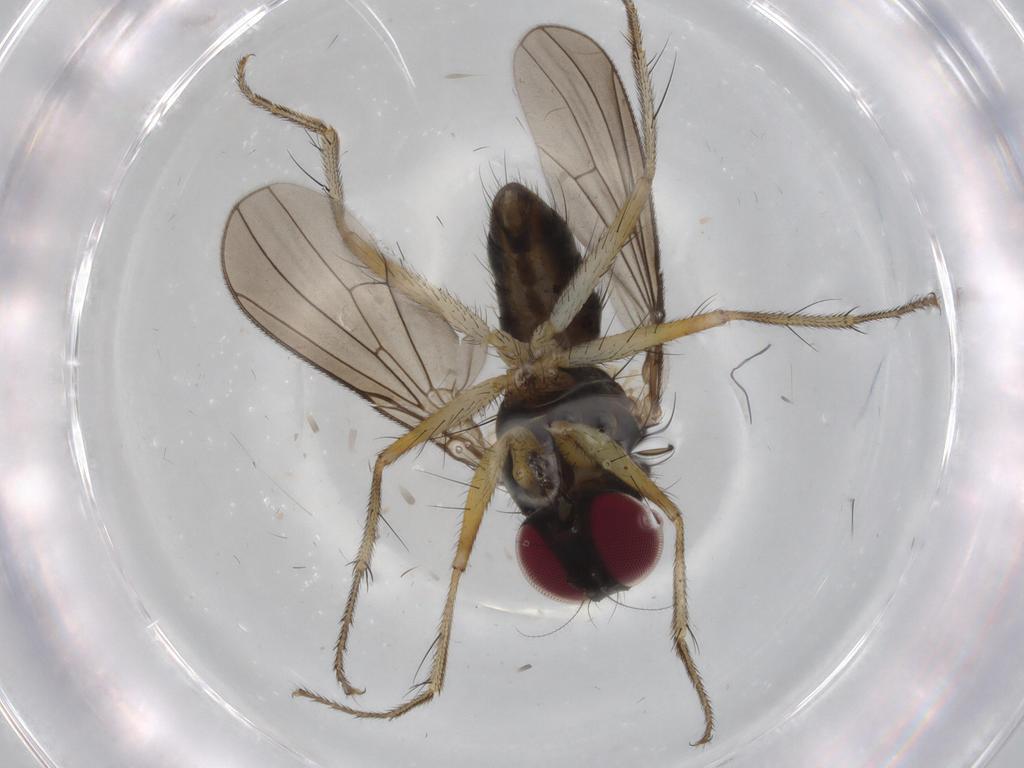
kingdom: Animalia
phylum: Arthropoda
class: Insecta
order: Diptera
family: Anthomyiidae
